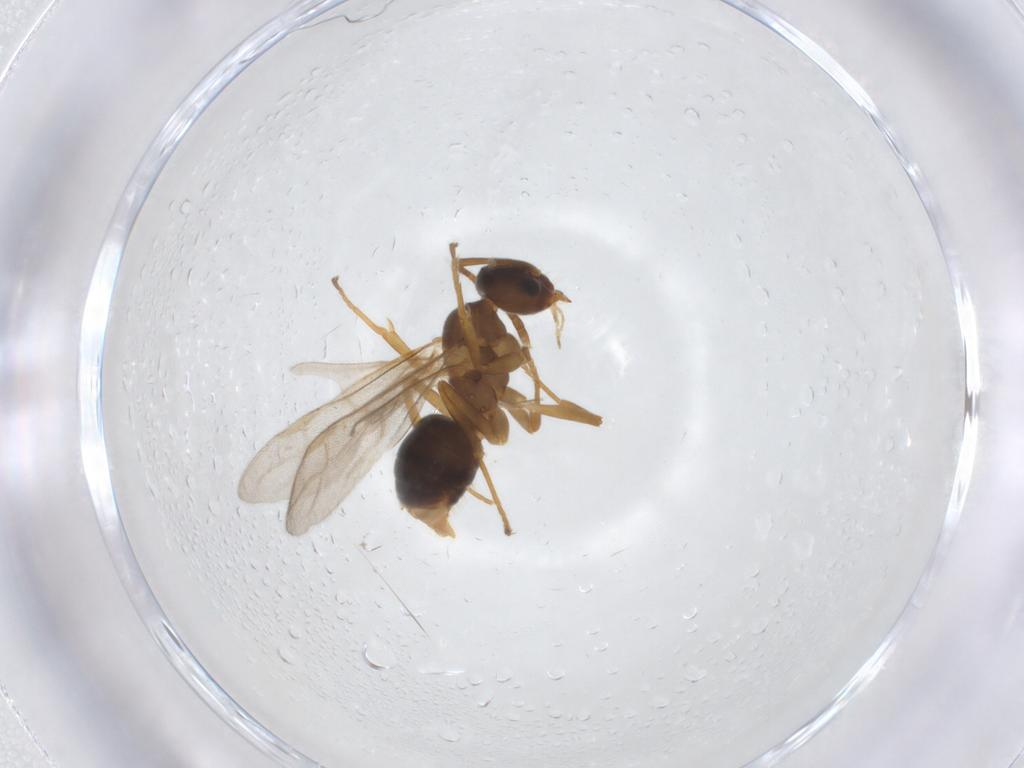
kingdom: Animalia
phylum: Arthropoda
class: Insecta
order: Hymenoptera
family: Formicidae
